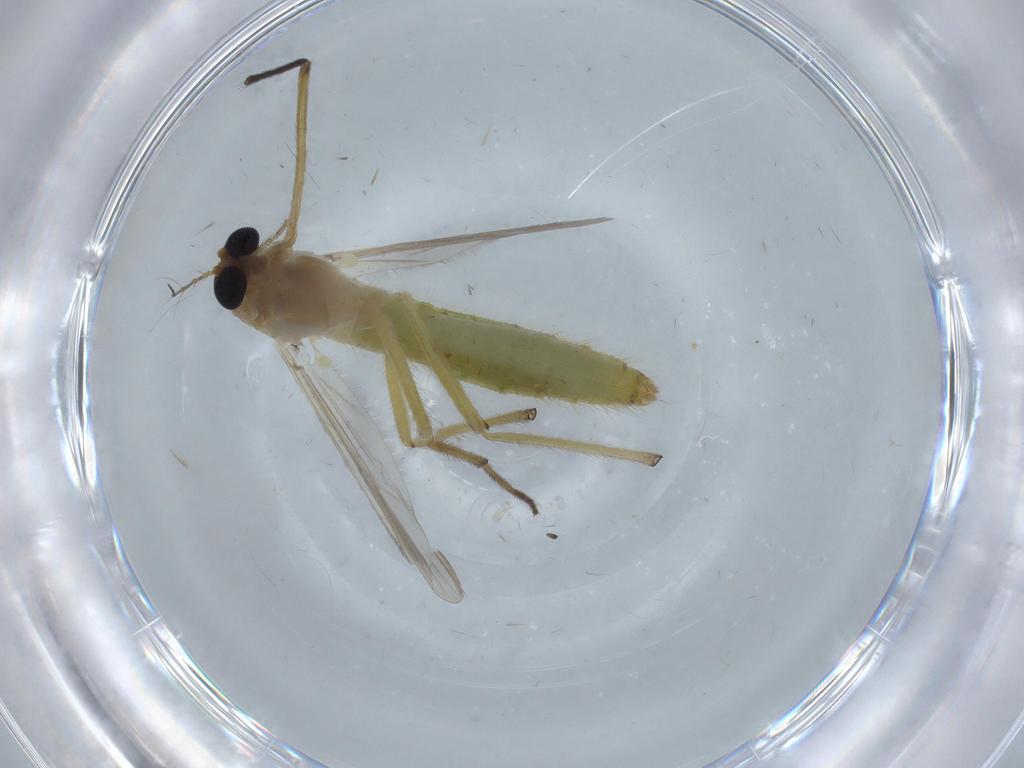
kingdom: Animalia
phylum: Arthropoda
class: Insecta
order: Diptera
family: Chironomidae
